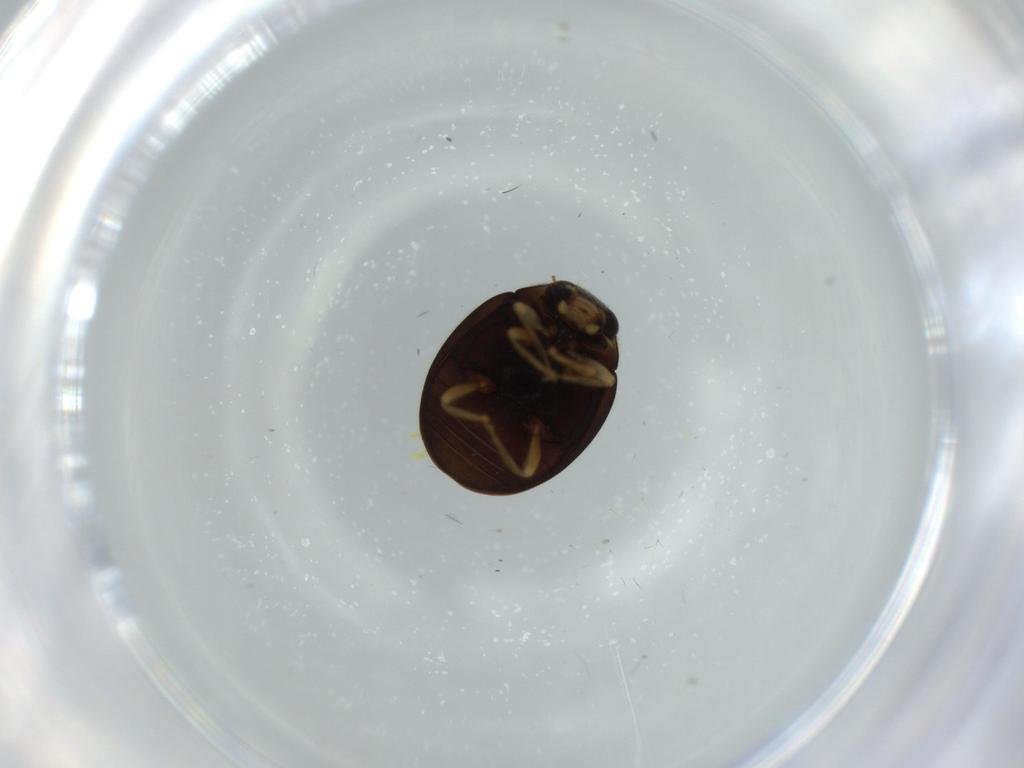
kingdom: Animalia
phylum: Arthropoda
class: Insecta
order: Coleoptera
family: Coccinellidae
